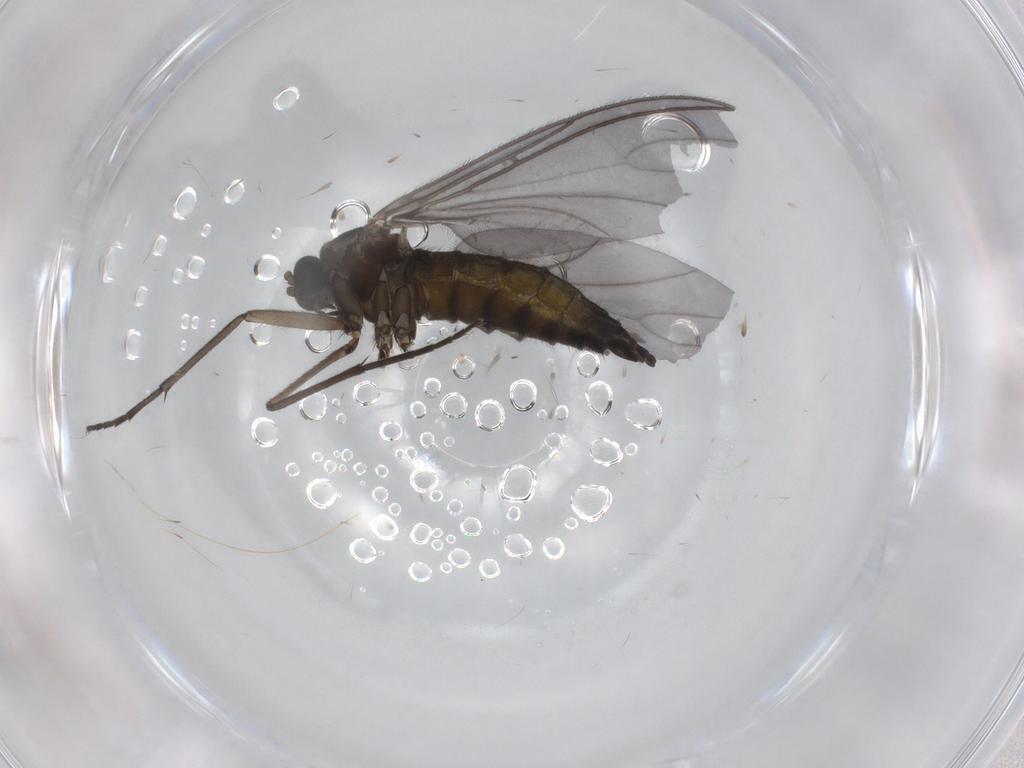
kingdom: Animalia
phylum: Arthropoda
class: Insecta
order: Diptera
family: Sciaridae
